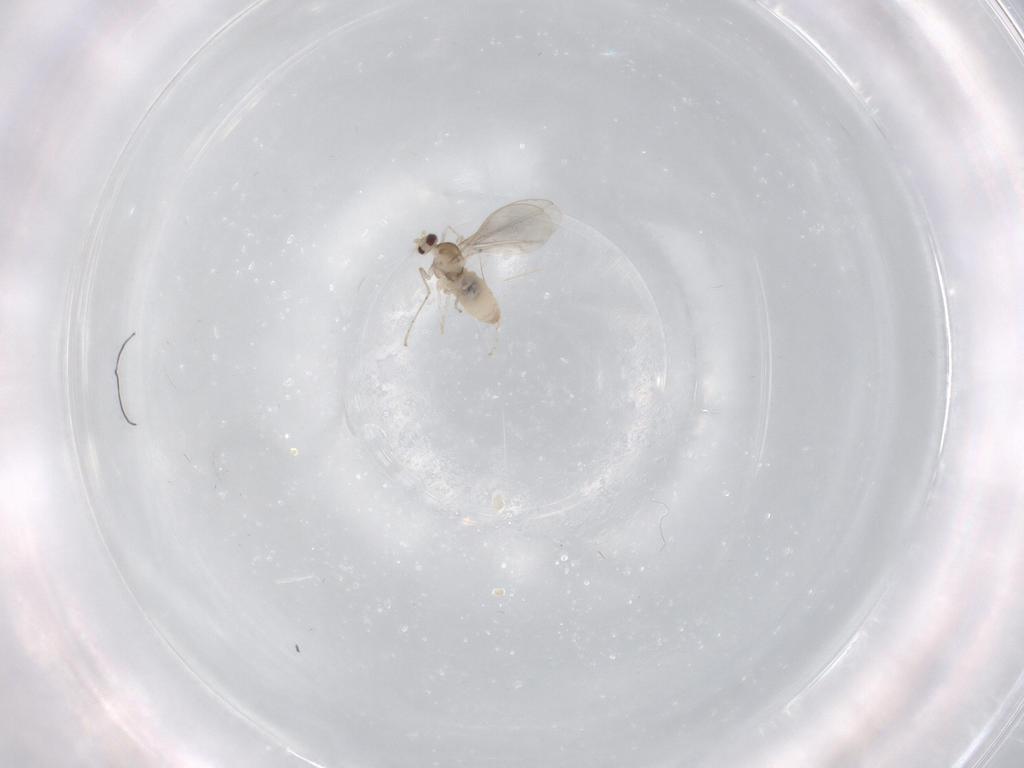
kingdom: Animalia
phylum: Arthropoda
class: Insecta
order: Diptera
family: Cecidomyiidae
